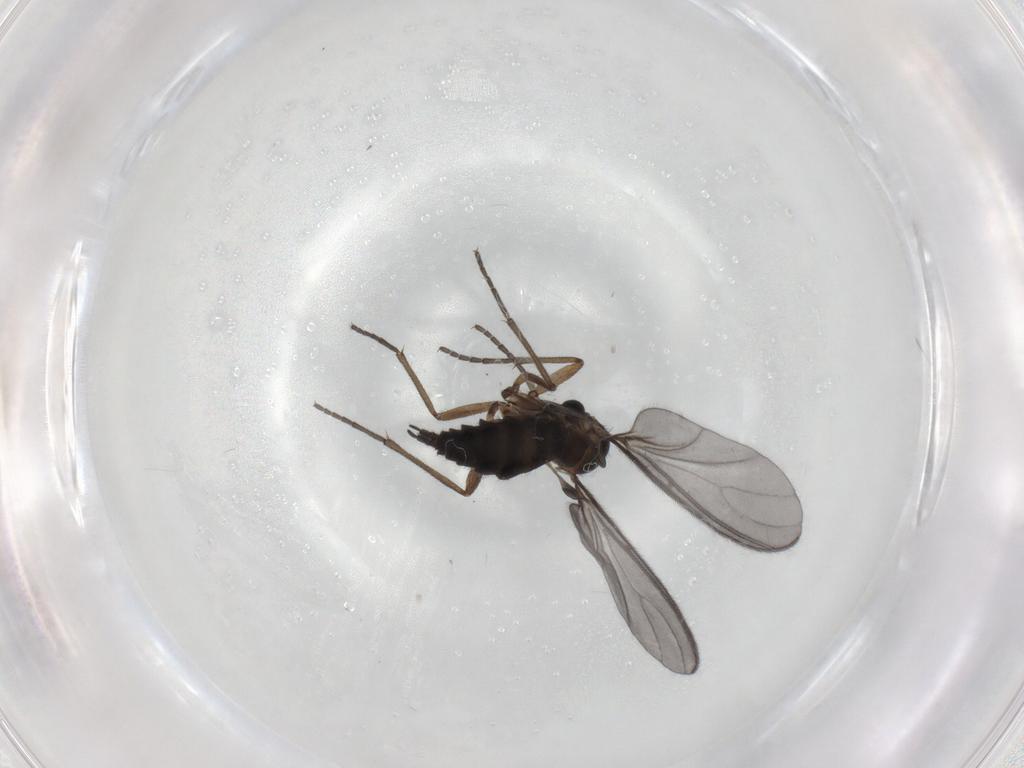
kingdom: Animalia
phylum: Arthropoda
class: Insecta
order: Diptera
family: Sciaridae
